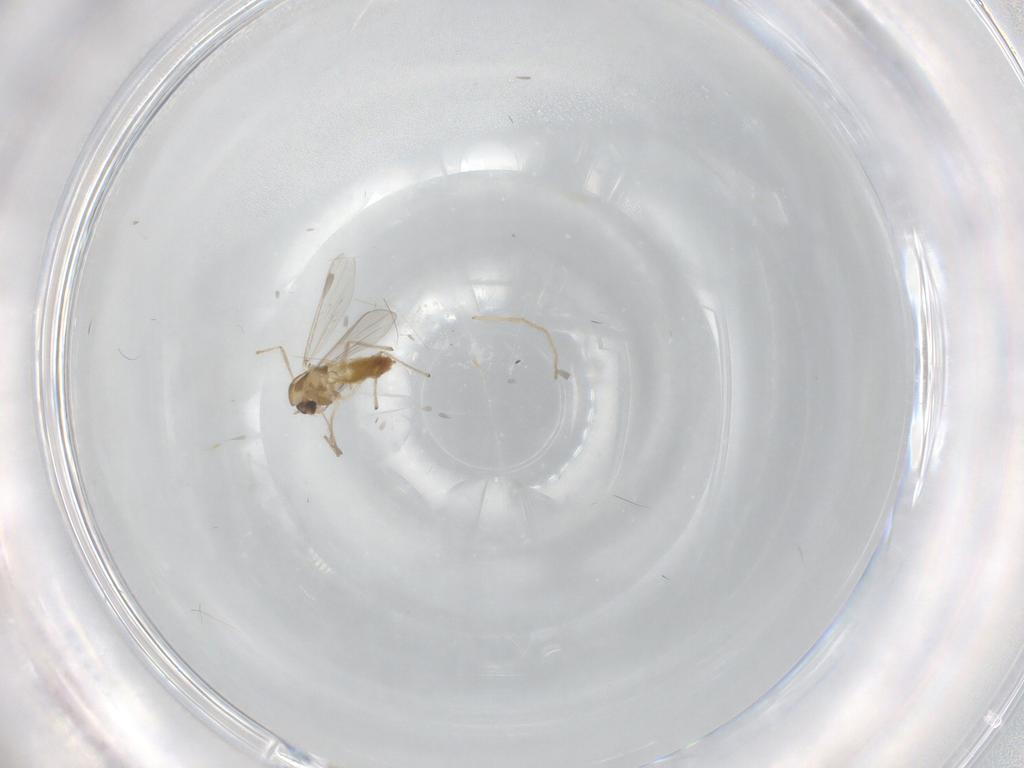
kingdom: Animalia
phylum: Arthropoda
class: Insecta
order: Diptera
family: Chironomidae
